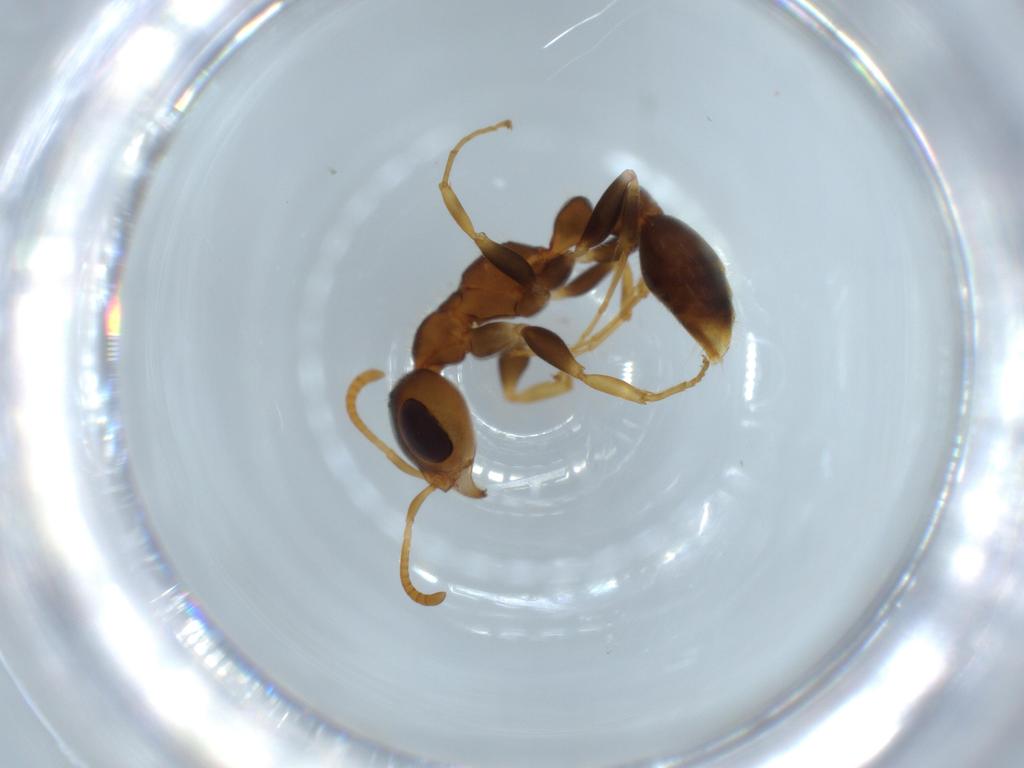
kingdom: Animalia
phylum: Arthropoda
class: Insecta
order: Hymenoptera
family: Formicidae
